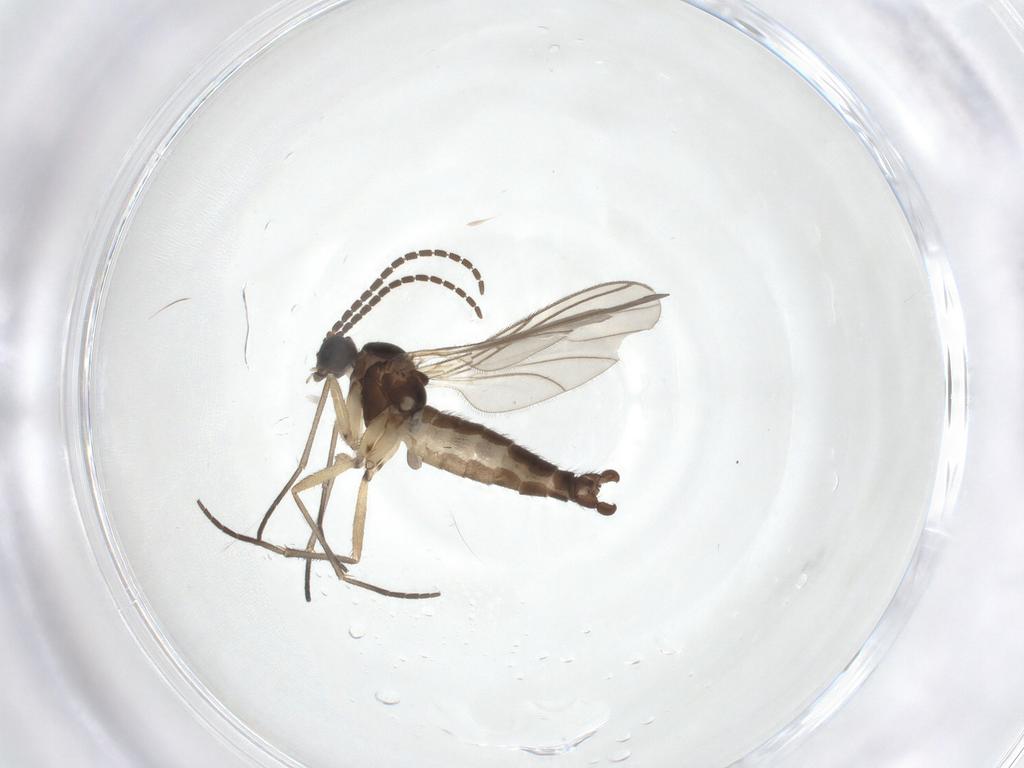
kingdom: Animalia
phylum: Arthropoda
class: Insecta
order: Diptera
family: Sciaridae
